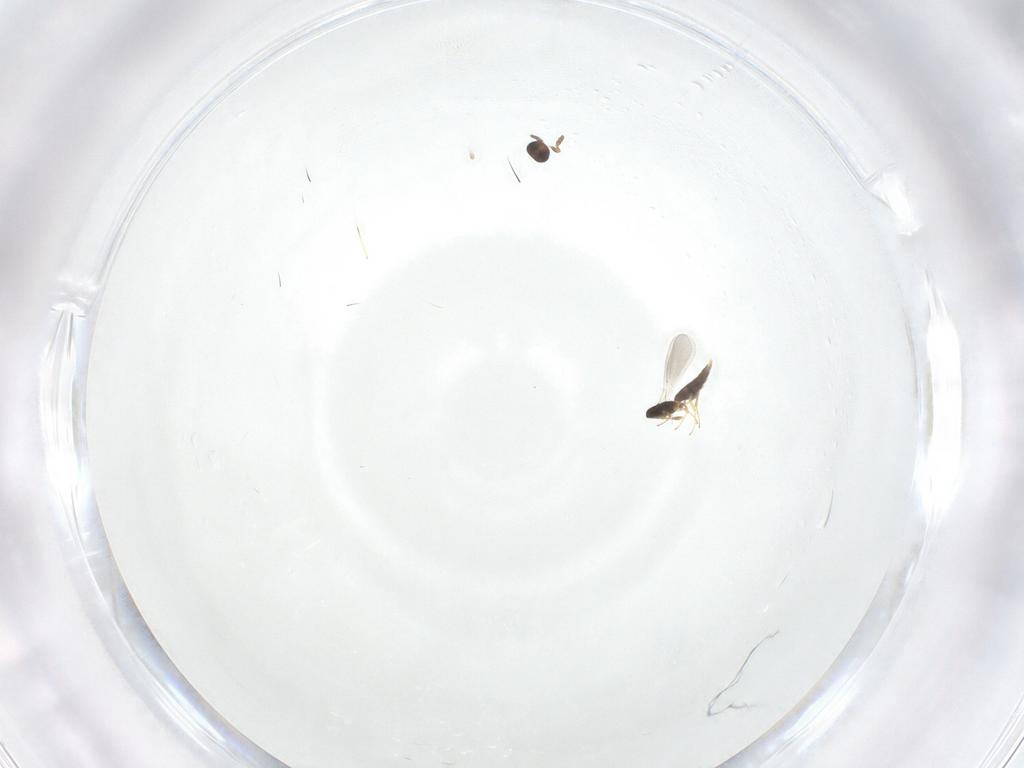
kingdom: Animalia
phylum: Arthropoda
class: Insecta
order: Hymenoptera
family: Platygastridae
